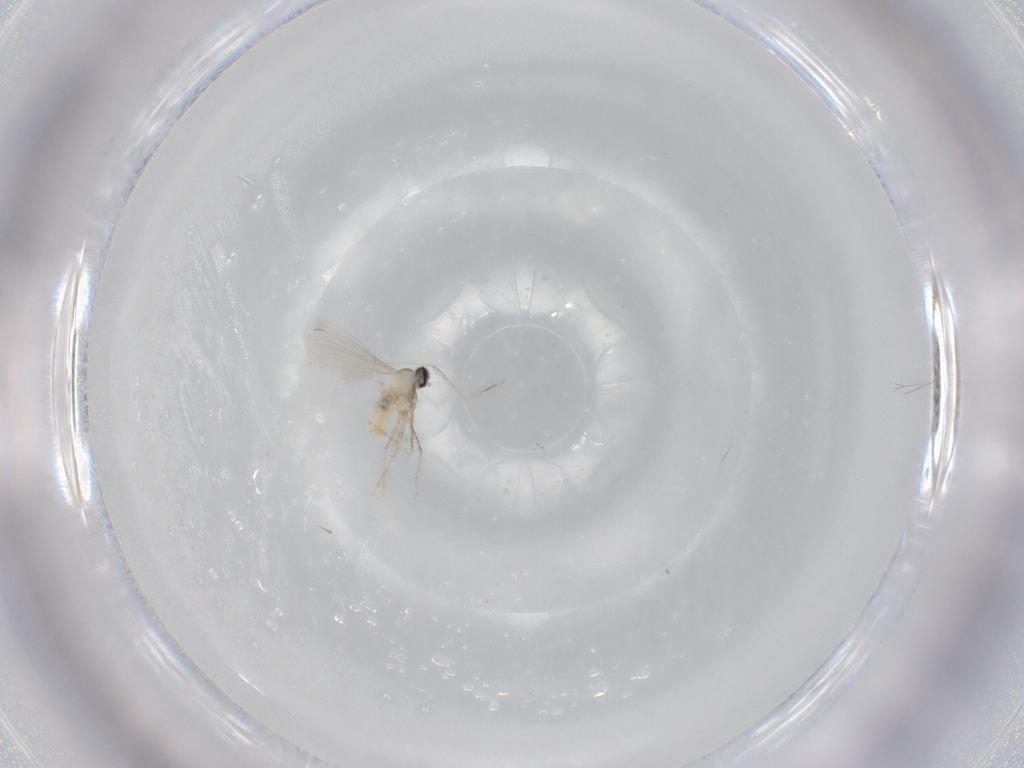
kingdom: Animalia
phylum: Arthropoda
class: Insecta
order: Diptera
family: Cecidomyiidae
